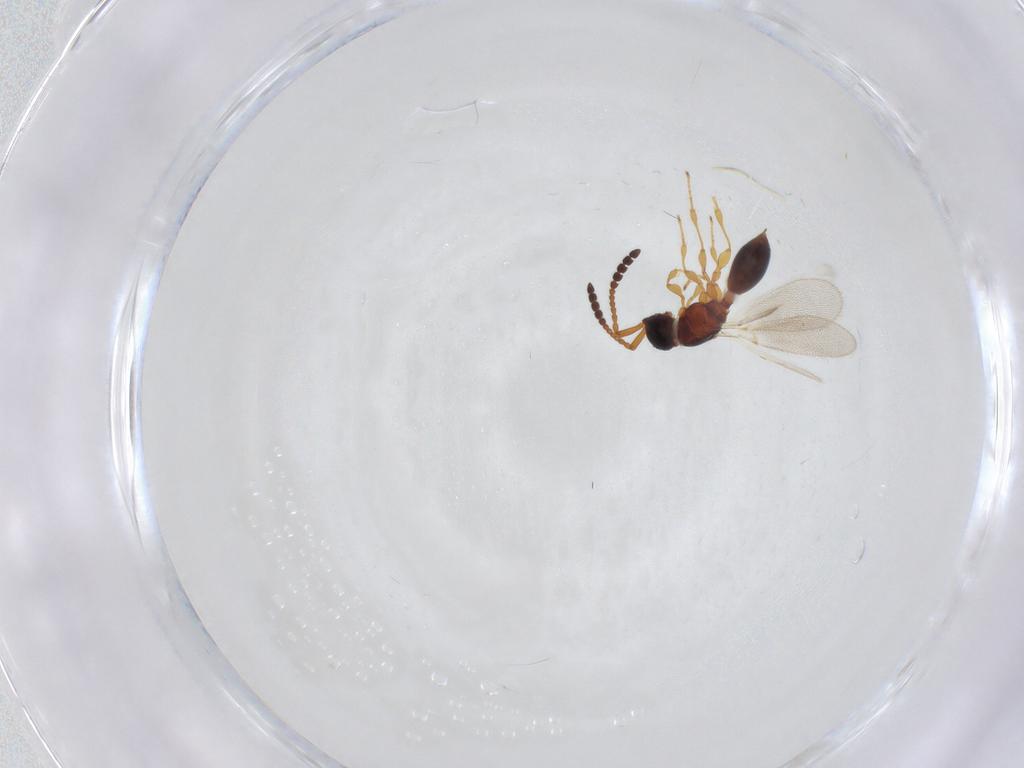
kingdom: Animalia
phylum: Arthropoda
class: Insecta
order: Hymenoptera
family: Diapriidae
